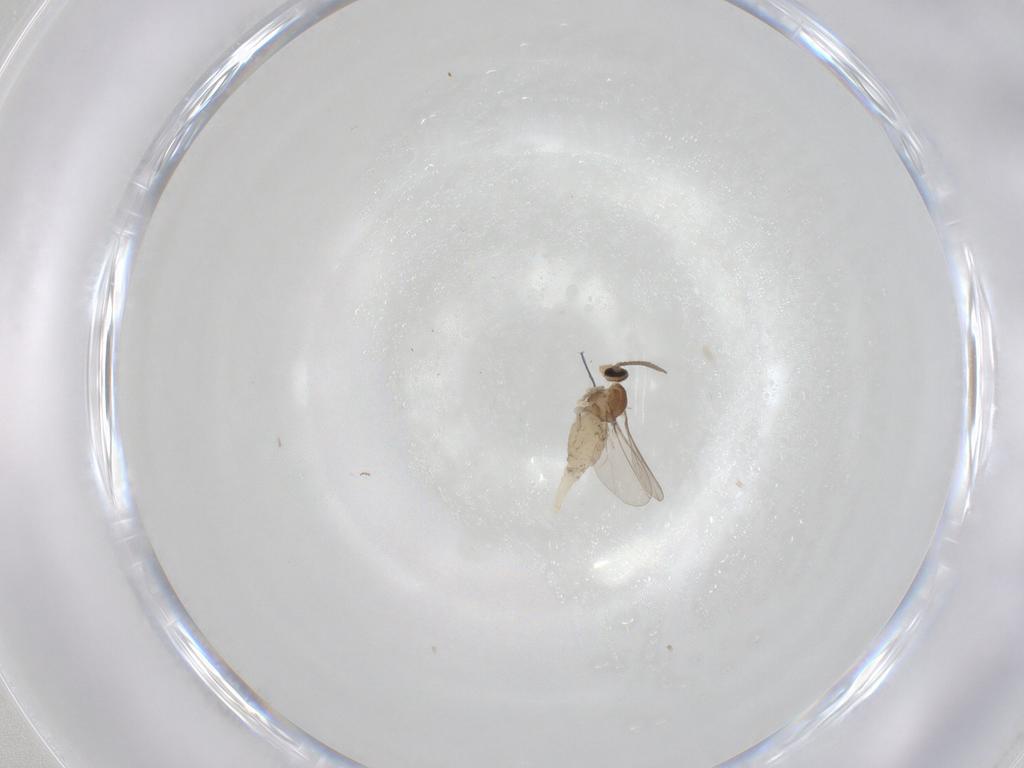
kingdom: Animalia
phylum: Arthropoda
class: Insecta
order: Diptera
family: Cecidomyiidae
